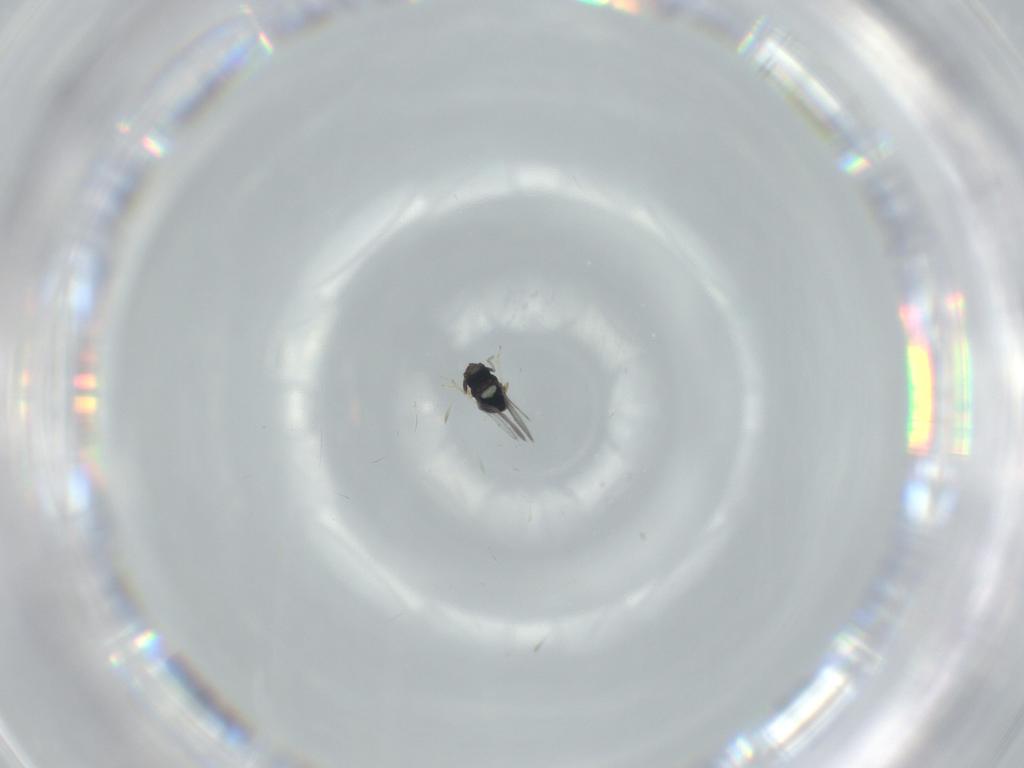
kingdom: Animalia
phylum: Arthropoda
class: Insecta
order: Hymenoptera
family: Aphelinidae
